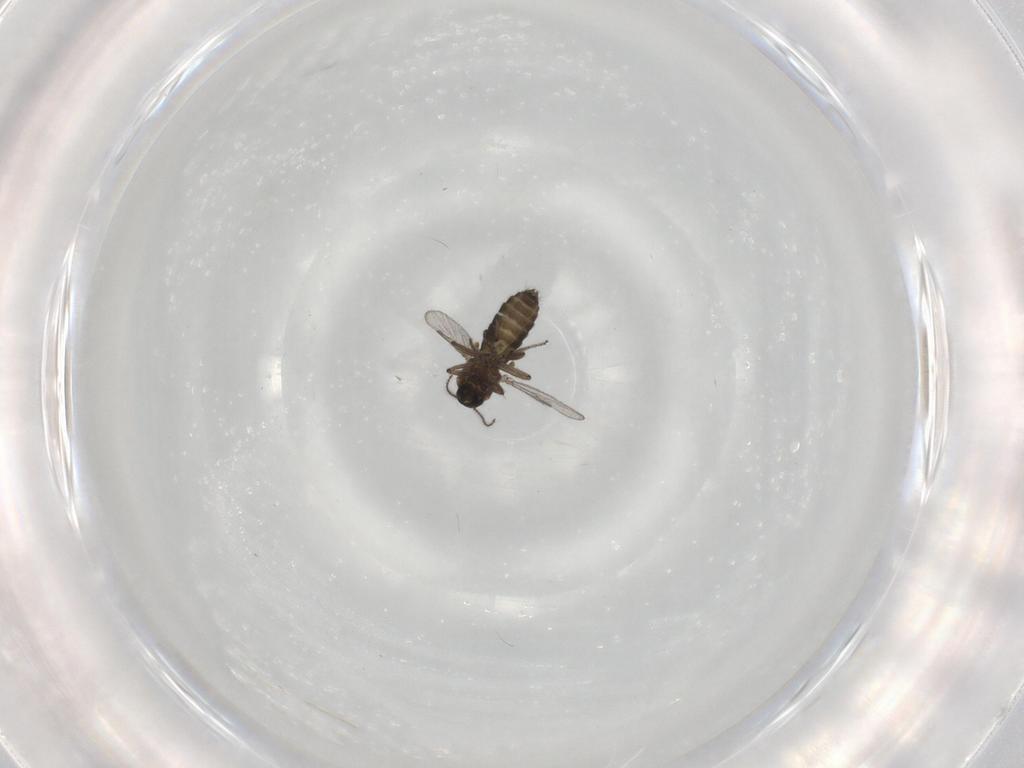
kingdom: Animalia
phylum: Arthropoda
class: Insecta
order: Diptera
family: Ceratopogonidae
